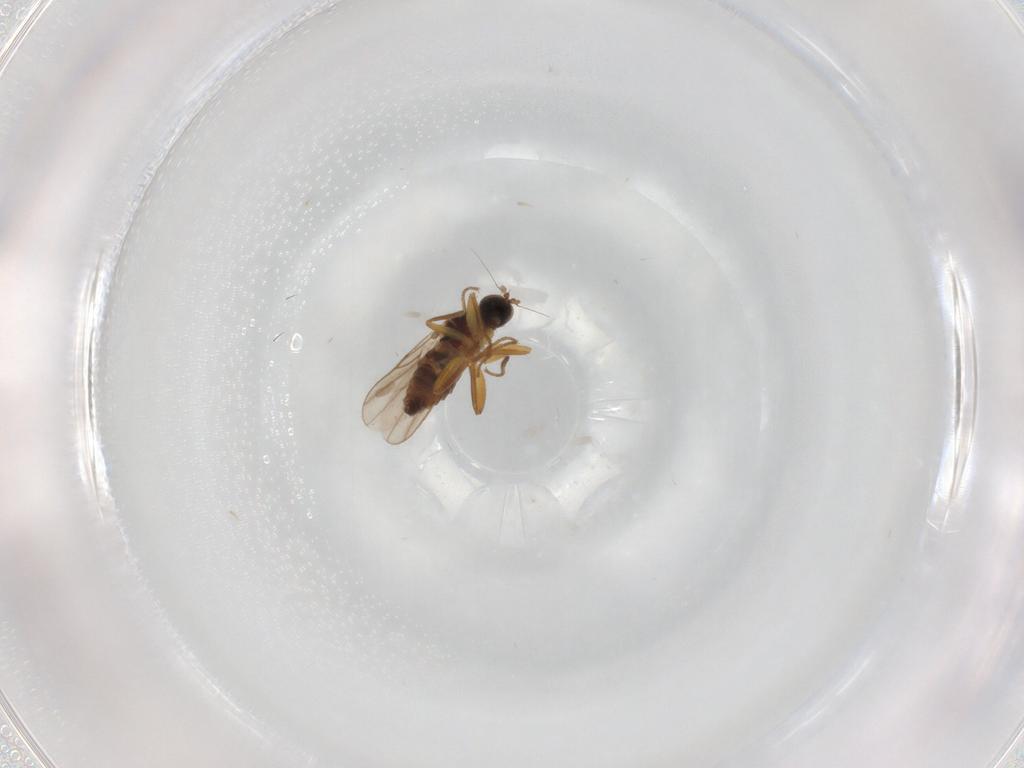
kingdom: Animalia
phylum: Arthropoda
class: Insecta
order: Diptera
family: Hybotidae
